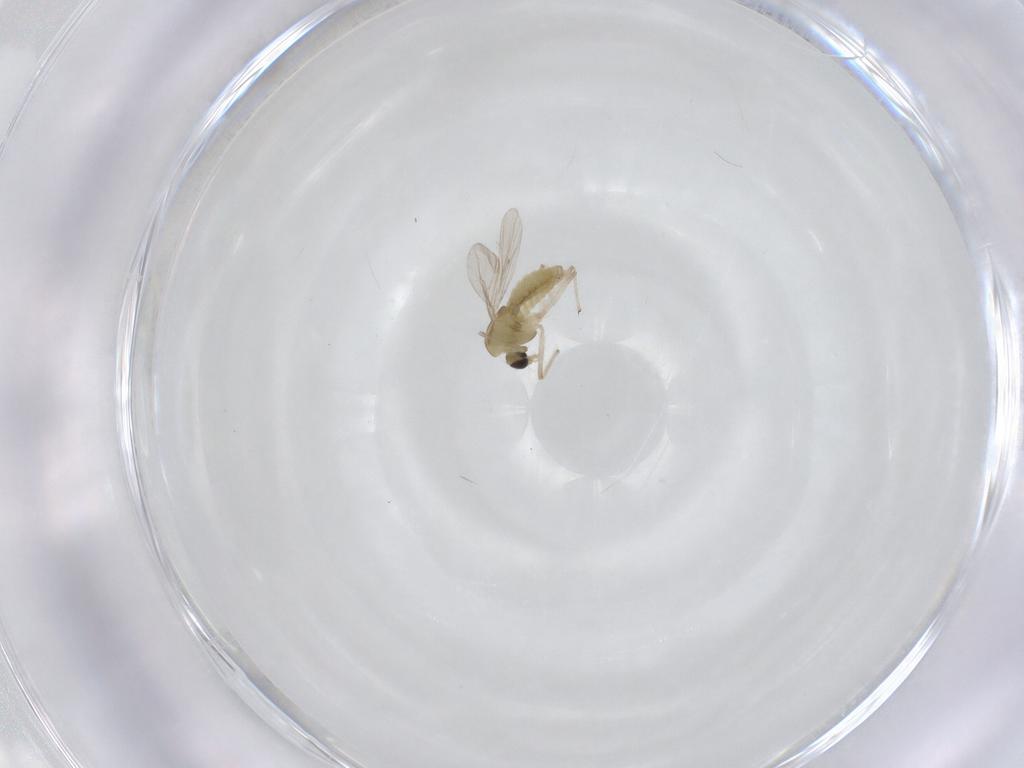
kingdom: Animalia
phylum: Arthropoda
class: Insecta
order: Diptera
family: Chironomidae
